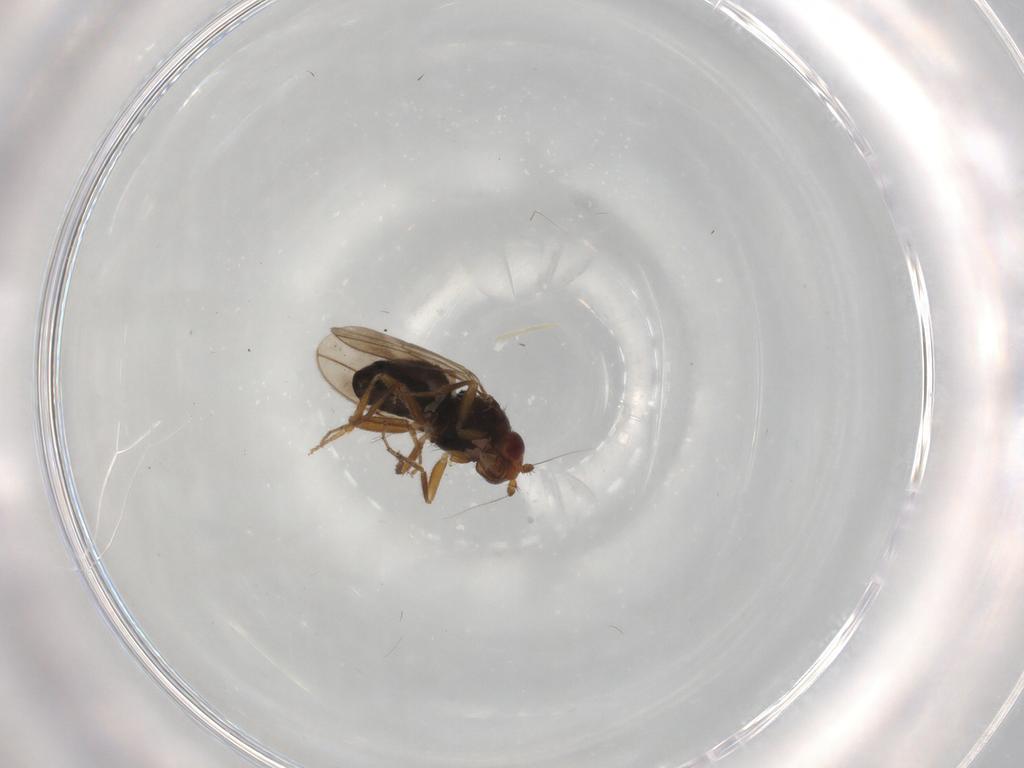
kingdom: Animalia
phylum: Arthropoda
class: Insecta
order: Diptera
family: Sphaeroceridae
